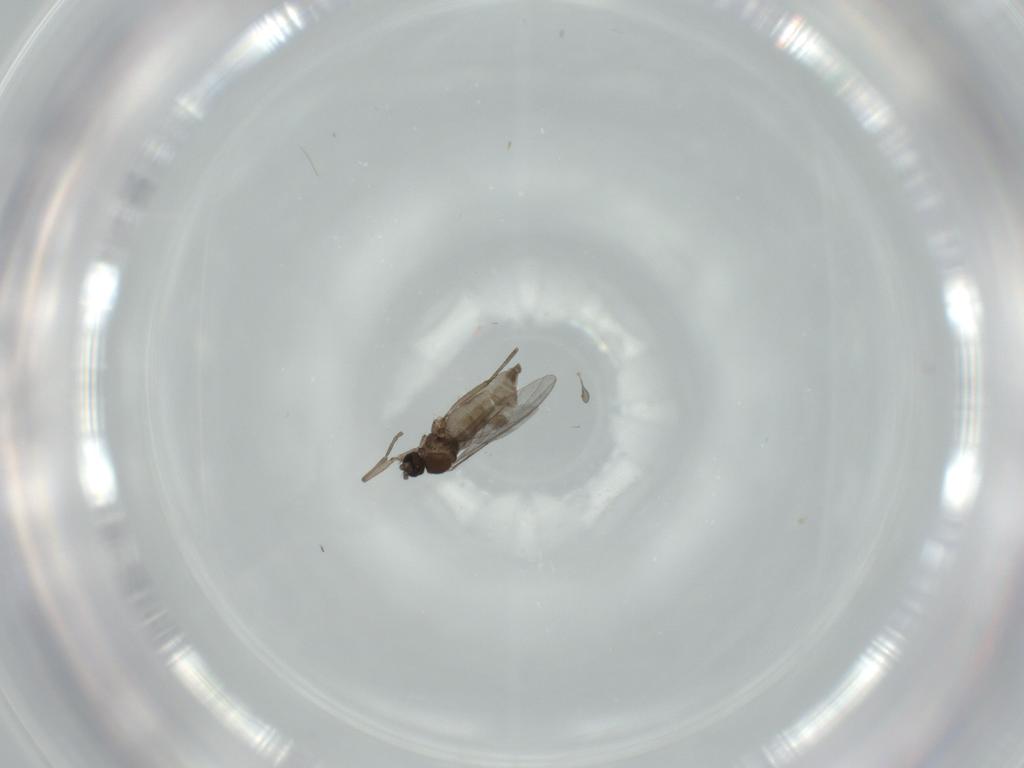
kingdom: Animalia
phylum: Arthropoda
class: Insecta
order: Diptera
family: Sciaridae
